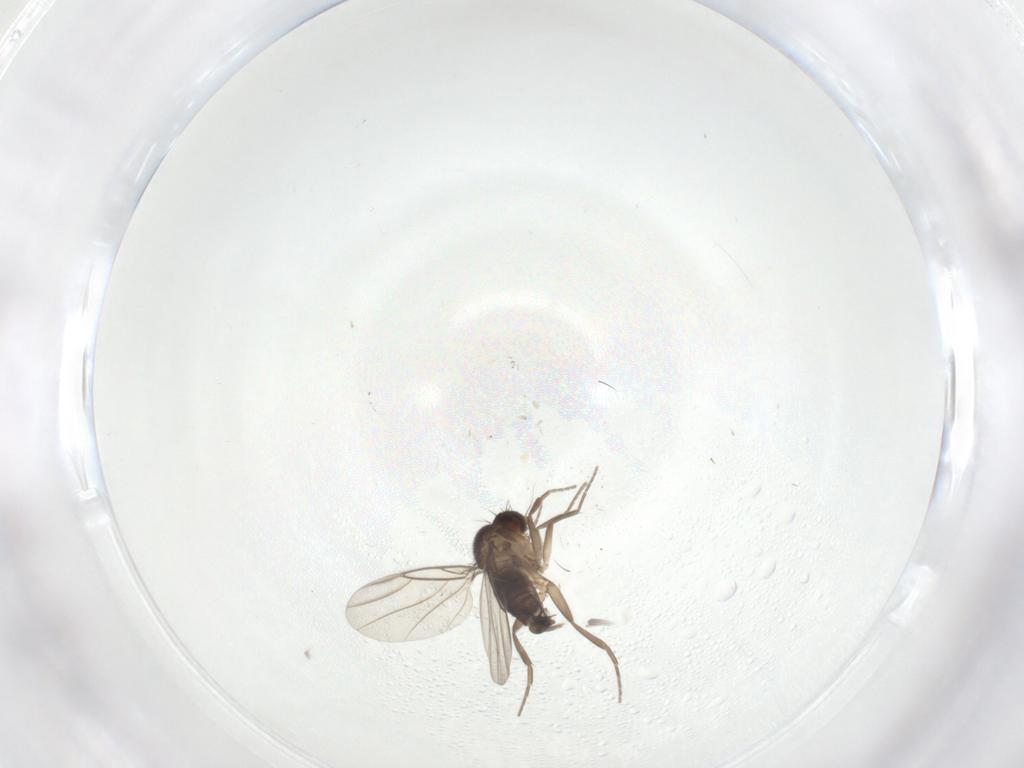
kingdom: Animalia
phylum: Arthropoda
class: Insecta
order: Diptera
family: Phoridae
